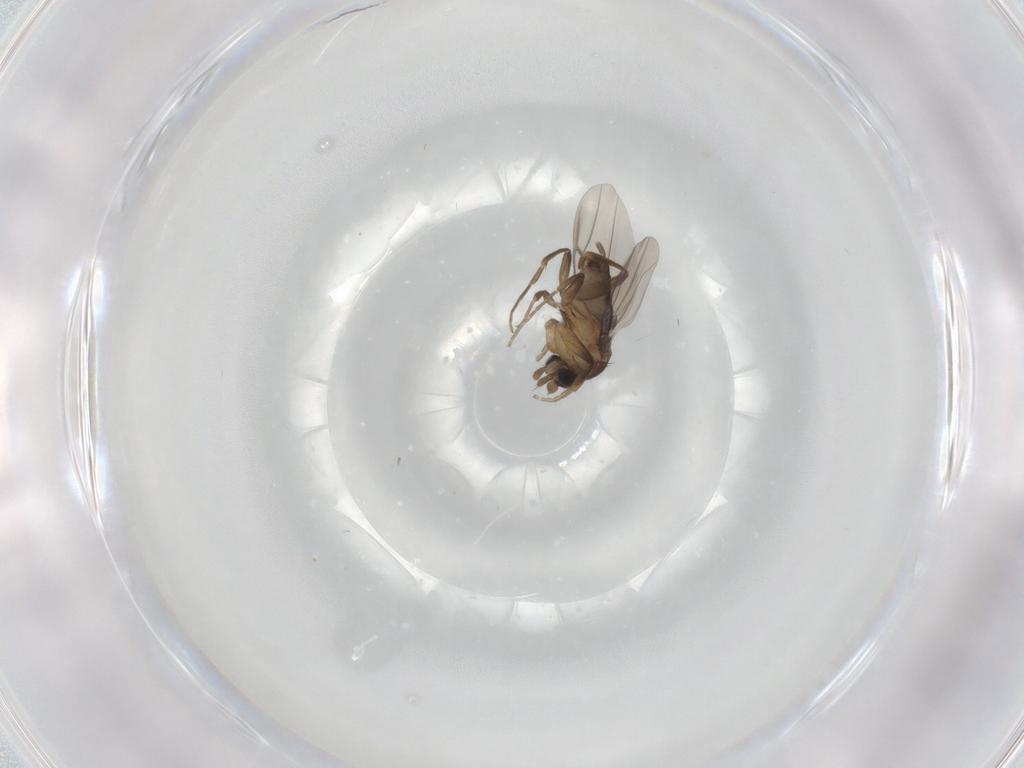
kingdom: Animalia
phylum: Arthropoda
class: Insecta
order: Diptera
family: Phoridae
